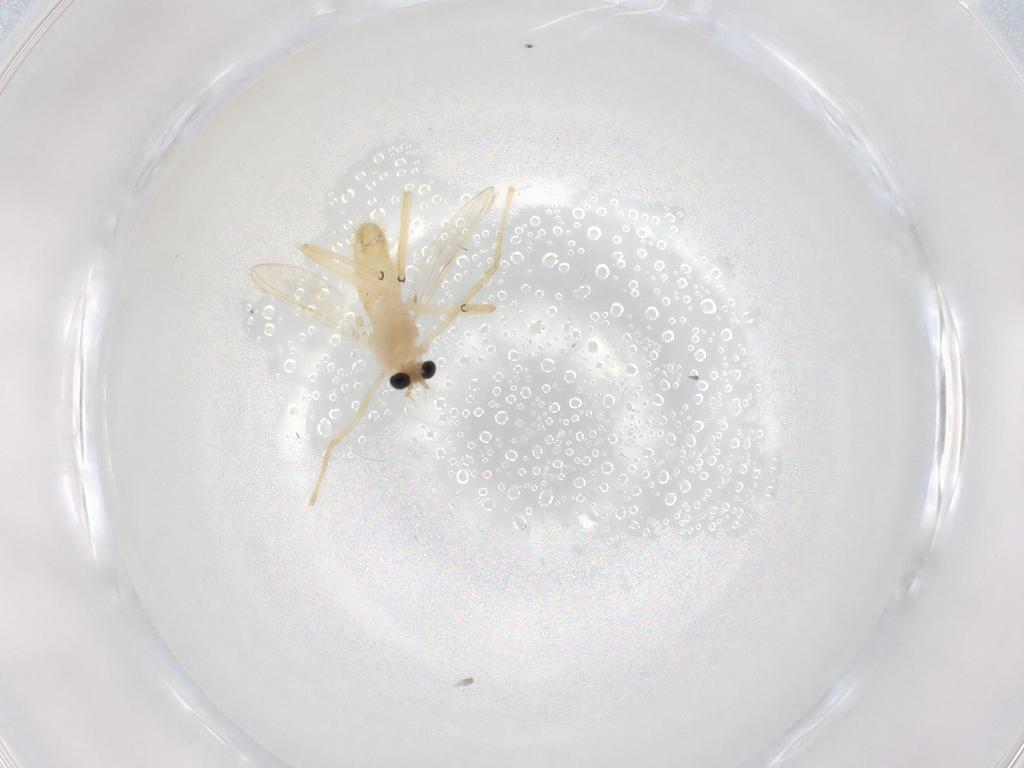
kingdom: Animalia
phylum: Arthropoda
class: Insecta
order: Diptera
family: Chironomidae
